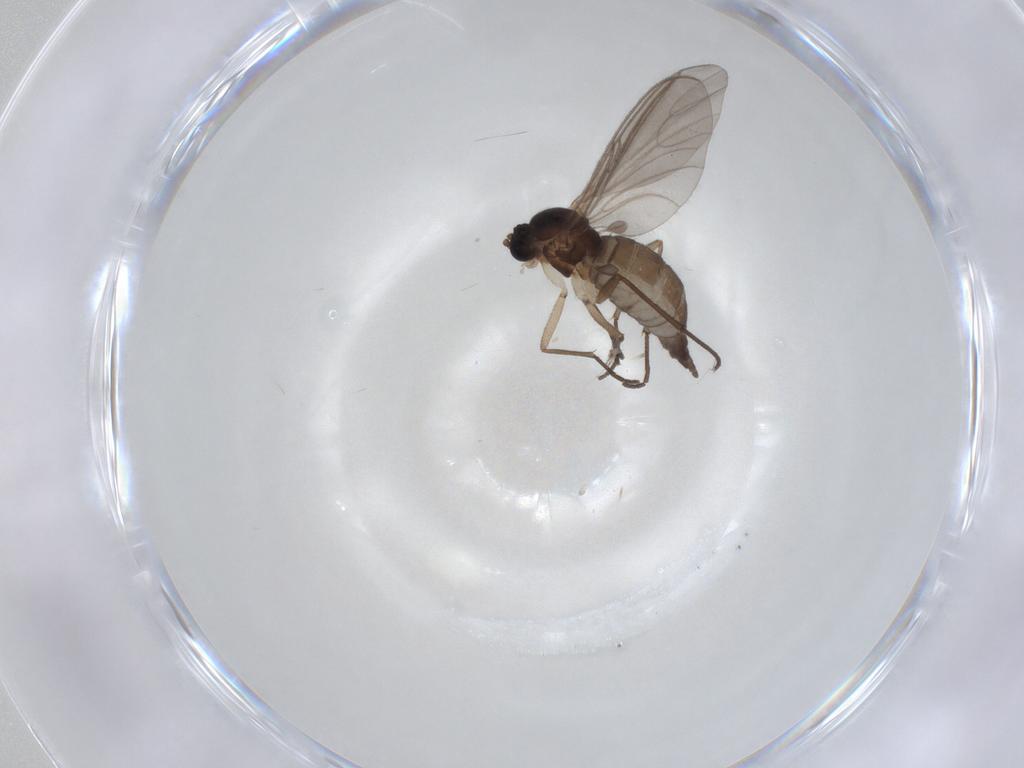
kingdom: Animalia
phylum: Arthropoda
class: Insecta
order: Diptera
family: Sciaridae
